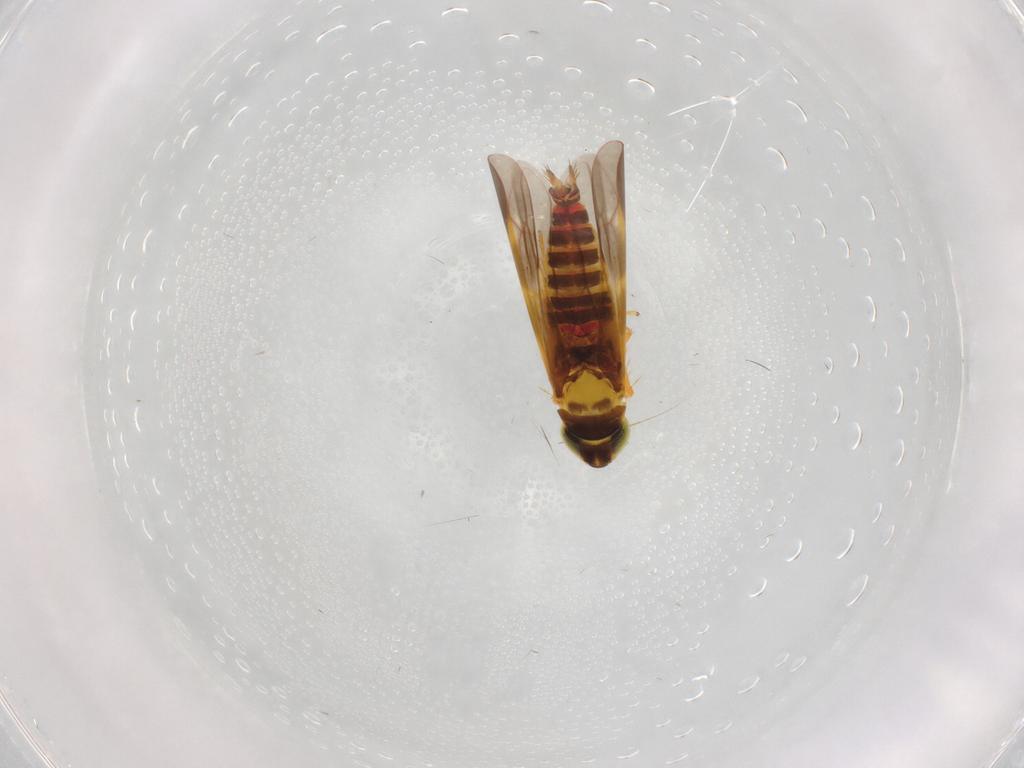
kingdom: Animalia
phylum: Arthropoda
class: Insecta
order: Hemiptera
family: Cicadellidae
